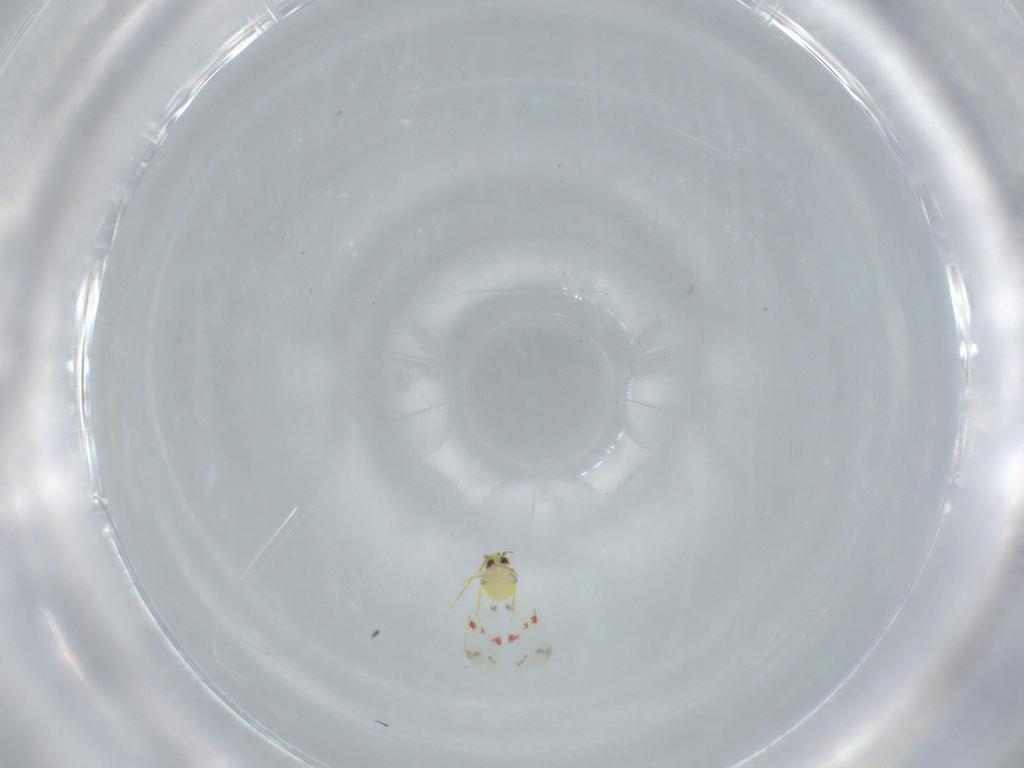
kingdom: Animalia
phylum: Arthropoda
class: Insecta
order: Hemiptera
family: Aleyrodidae
